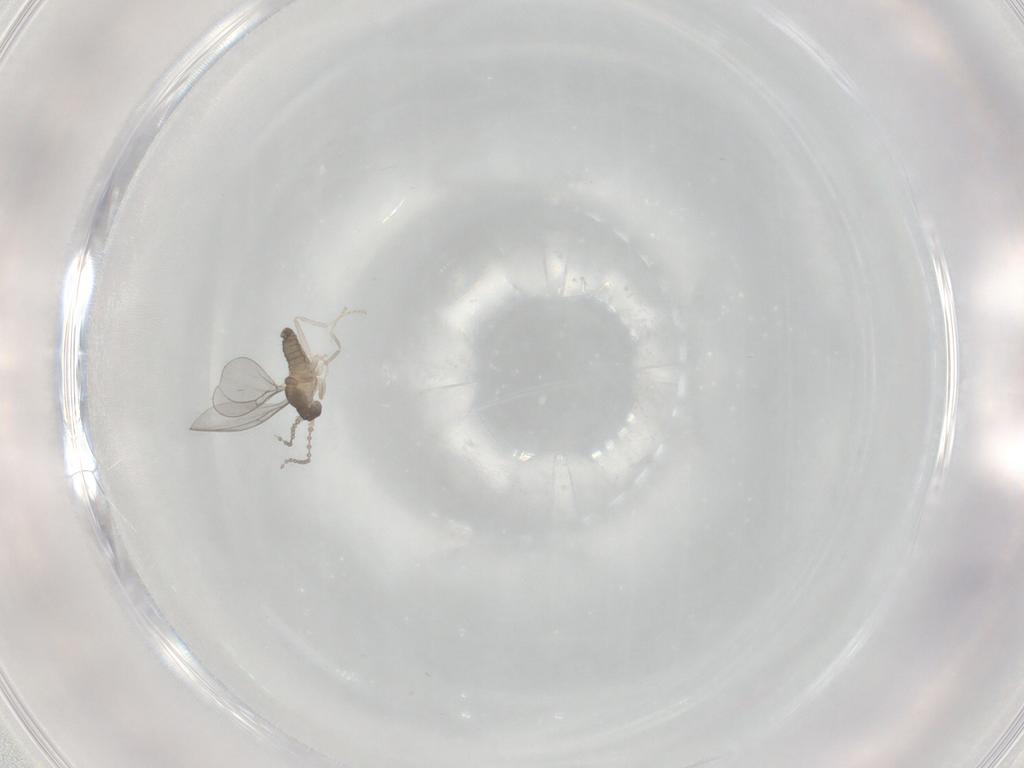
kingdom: Animalia
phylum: Arthropoda
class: Insecta
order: Diptera
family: Cecidomyiidae
